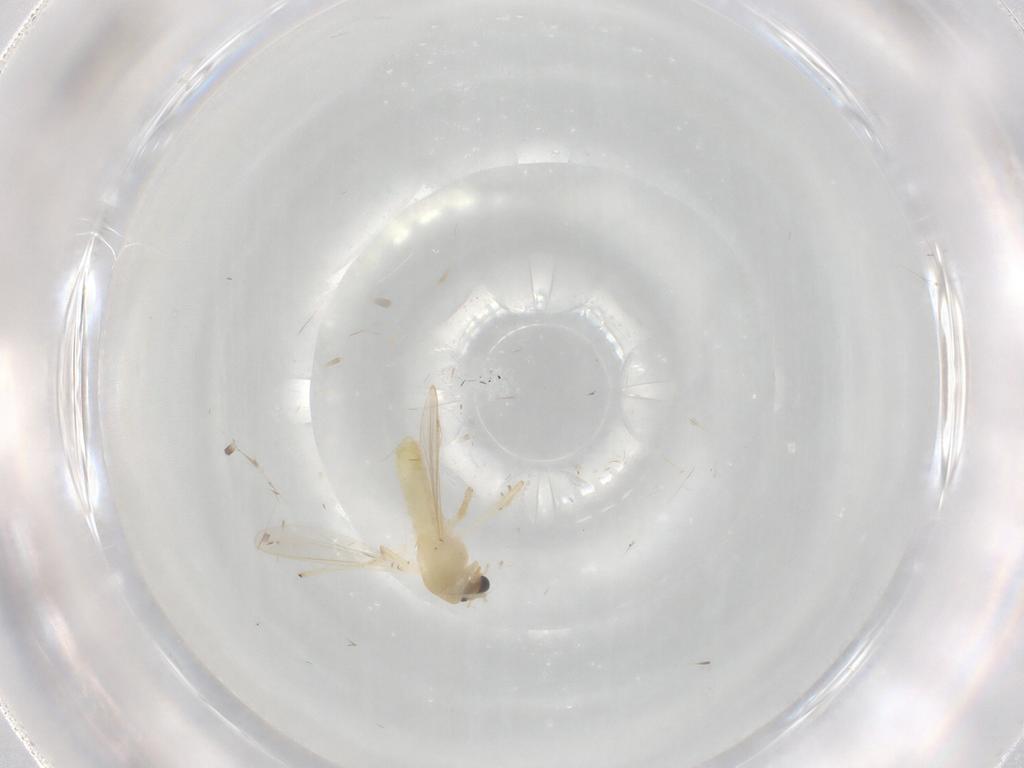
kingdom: Animalia
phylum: Arthropoda
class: Insecta
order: Diptera
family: Chironomidae
